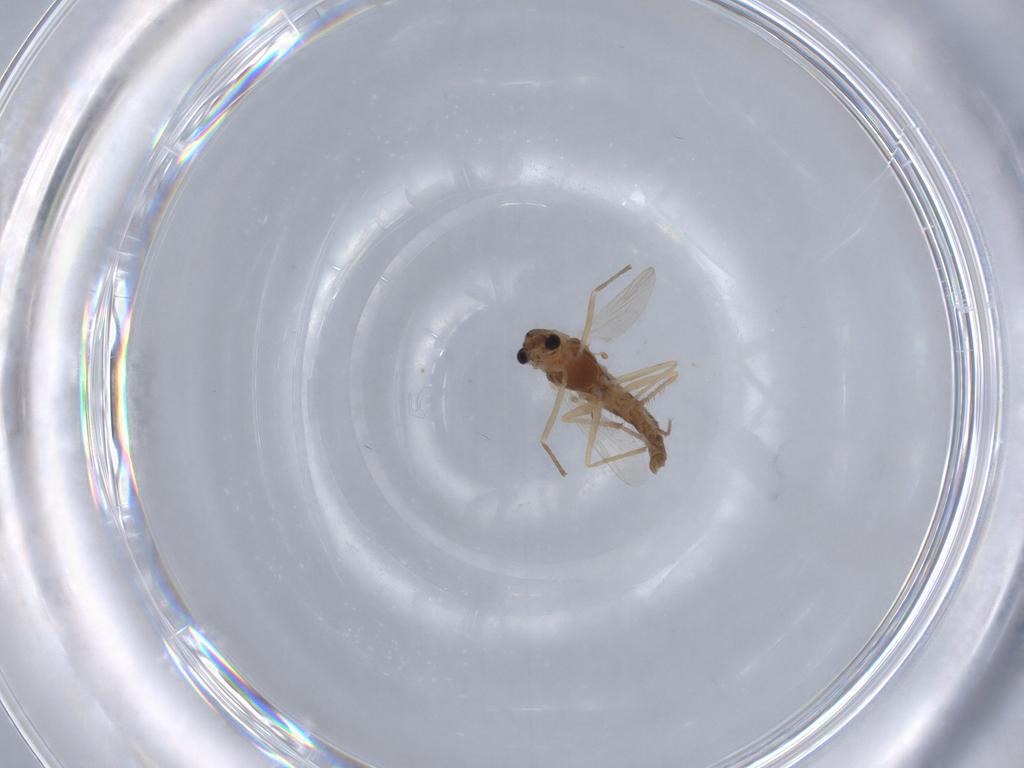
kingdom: Animalia
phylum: Arthropoda
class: Insecta
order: Diptera
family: Chironomidae
